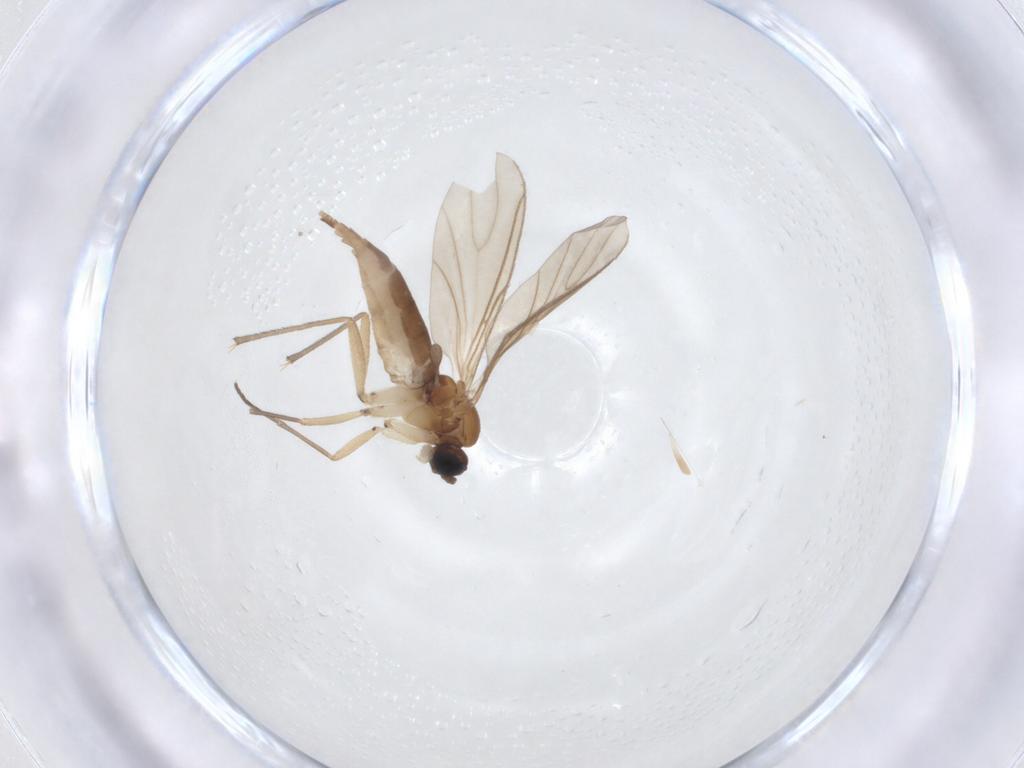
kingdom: Animalia
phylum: Arthropoda
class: Insecta
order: Diptera
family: Sciaridae
